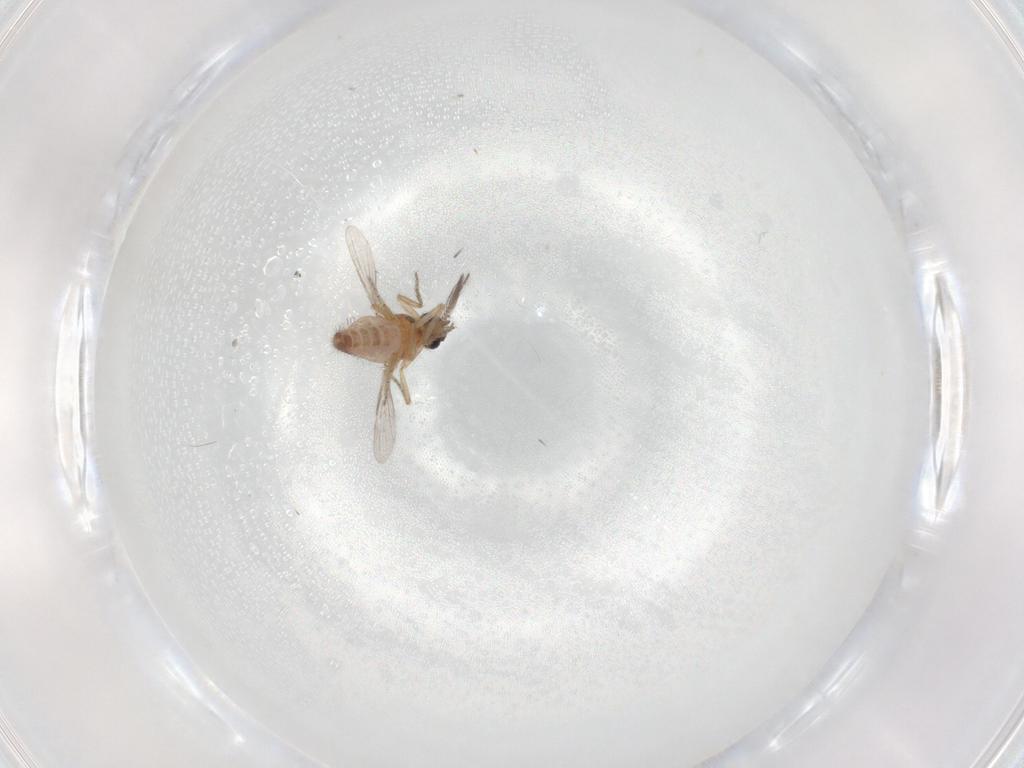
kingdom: Animalia
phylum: Arthropoda
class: Insecta
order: Diptera
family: Ceratopogonidae
